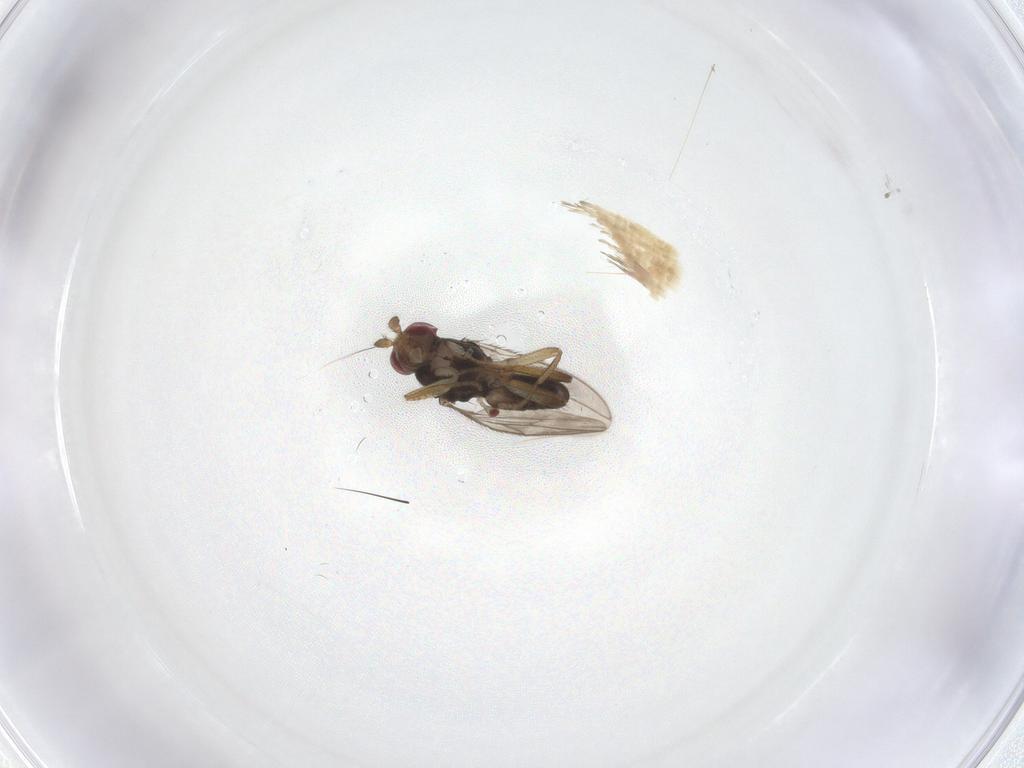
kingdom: Animalia
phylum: Arthropoda
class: Insecta
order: Diptera
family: Sphaeroceridae
